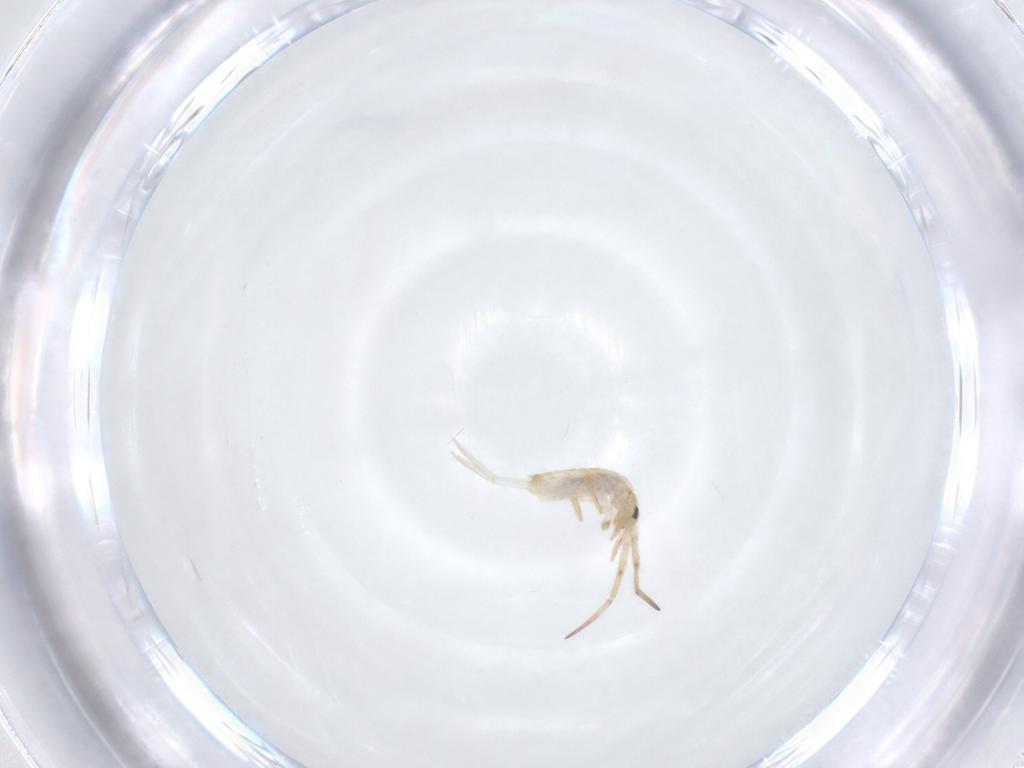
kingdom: Animalia
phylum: Arthropoda
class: Collembola
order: Entomobryomorpha
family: Entomobryidae
